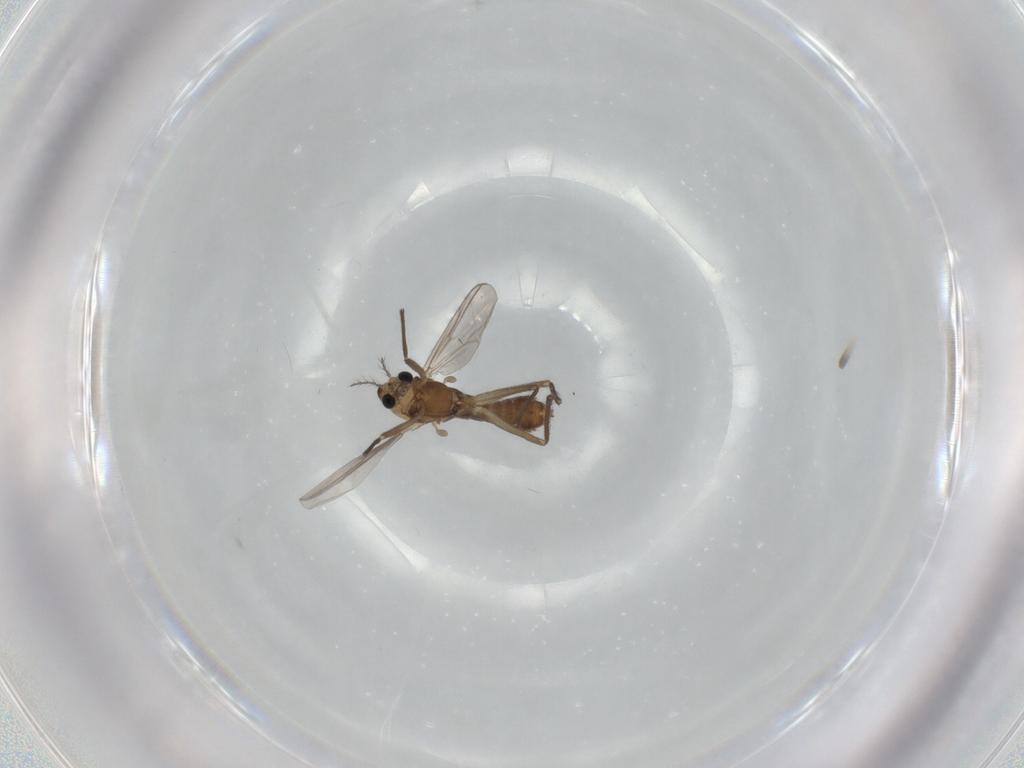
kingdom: Animalia
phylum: Arthropoda
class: Insecta
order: Diptera
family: Chironomidae
